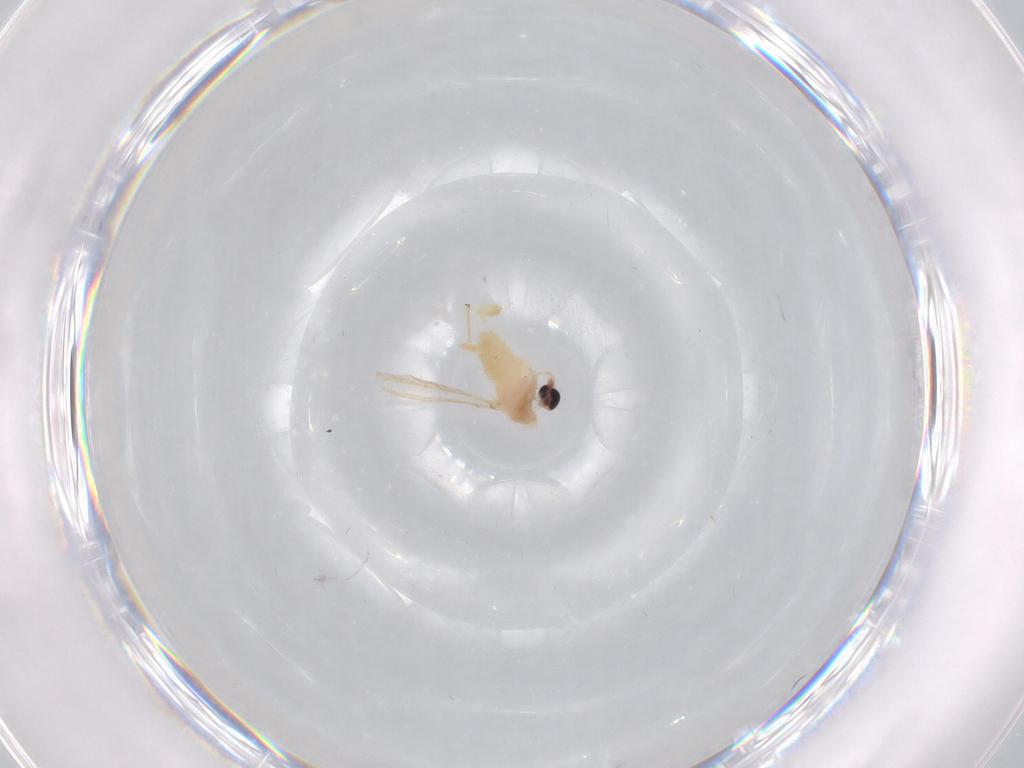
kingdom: Animalia
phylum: Arthropoda
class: Insecta
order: Diptera
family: Chironomidae
